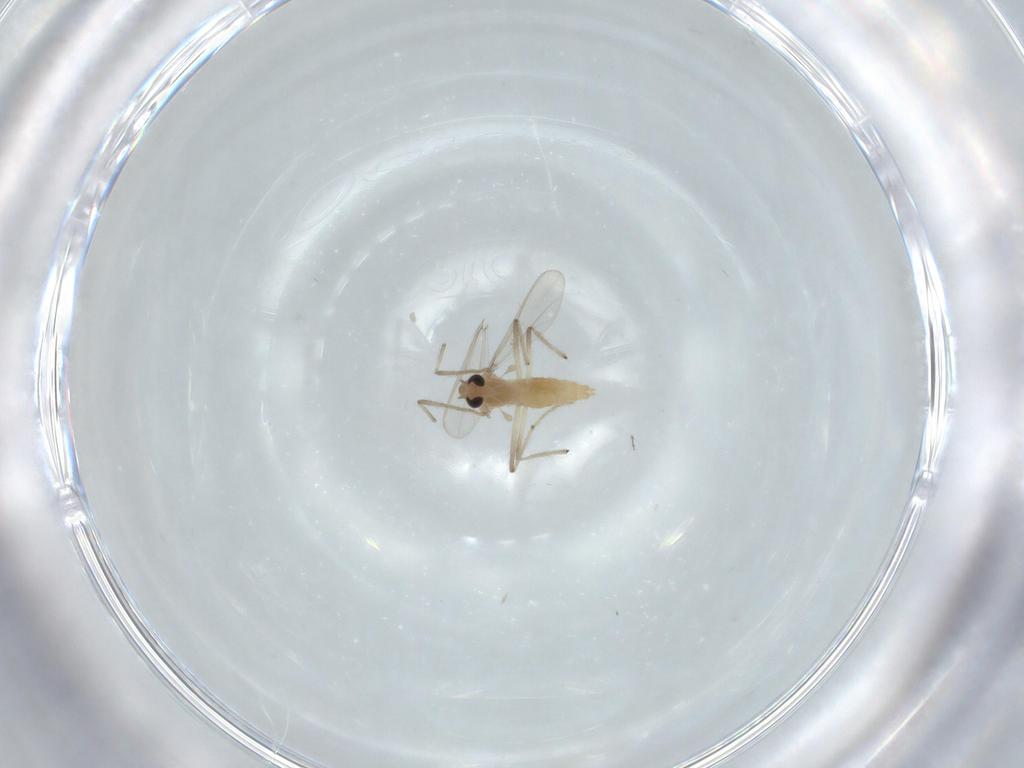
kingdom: Animalia
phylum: Arthropoda
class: Insecta
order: Diptera
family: Chironomidae
